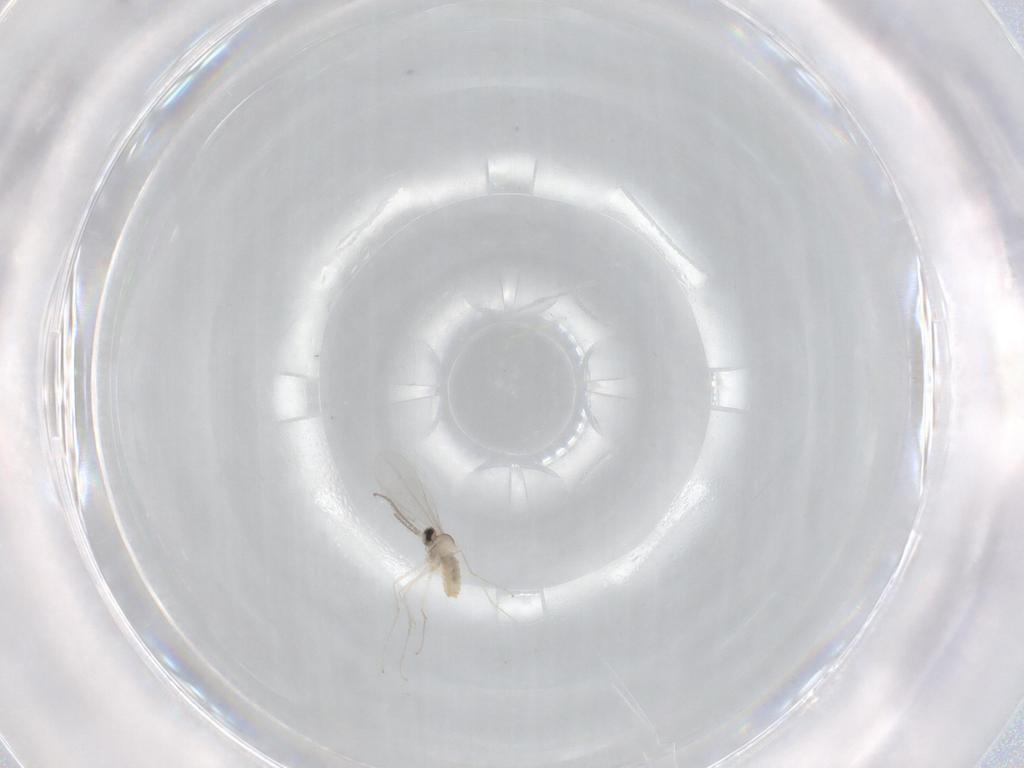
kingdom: Animalia
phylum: Arthropoda
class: Insecta
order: Diptera
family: Cecidomyiidae
